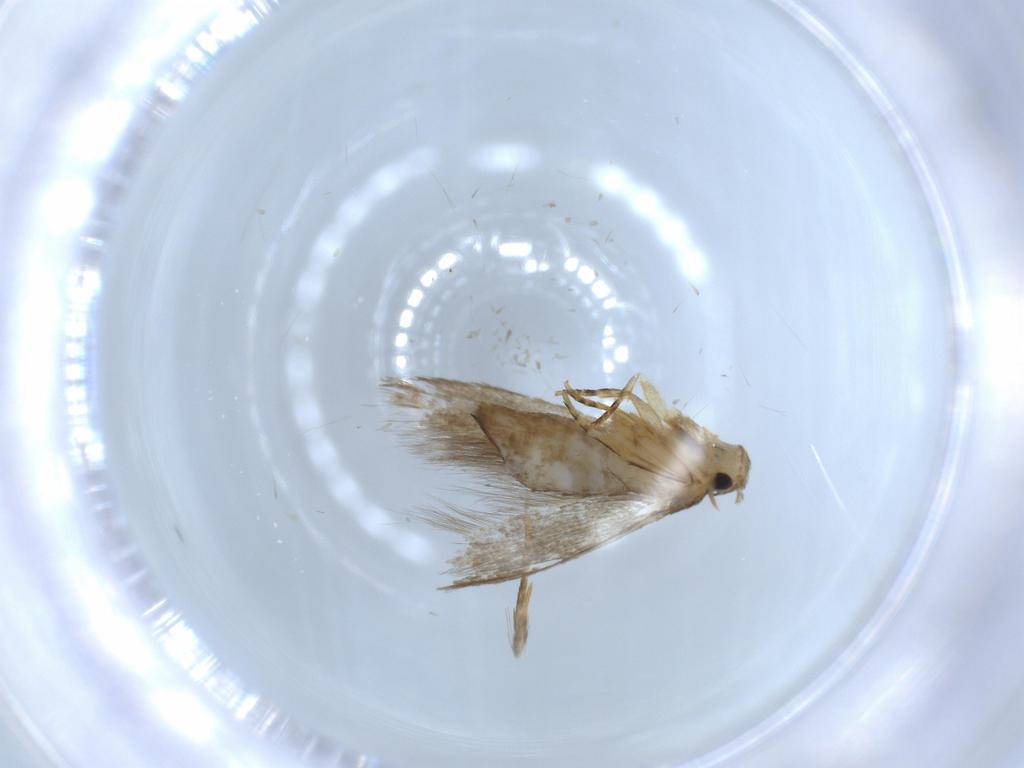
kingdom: Animalia
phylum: Arthropoda
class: Insecta
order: Lepidoptera
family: Tineidae
